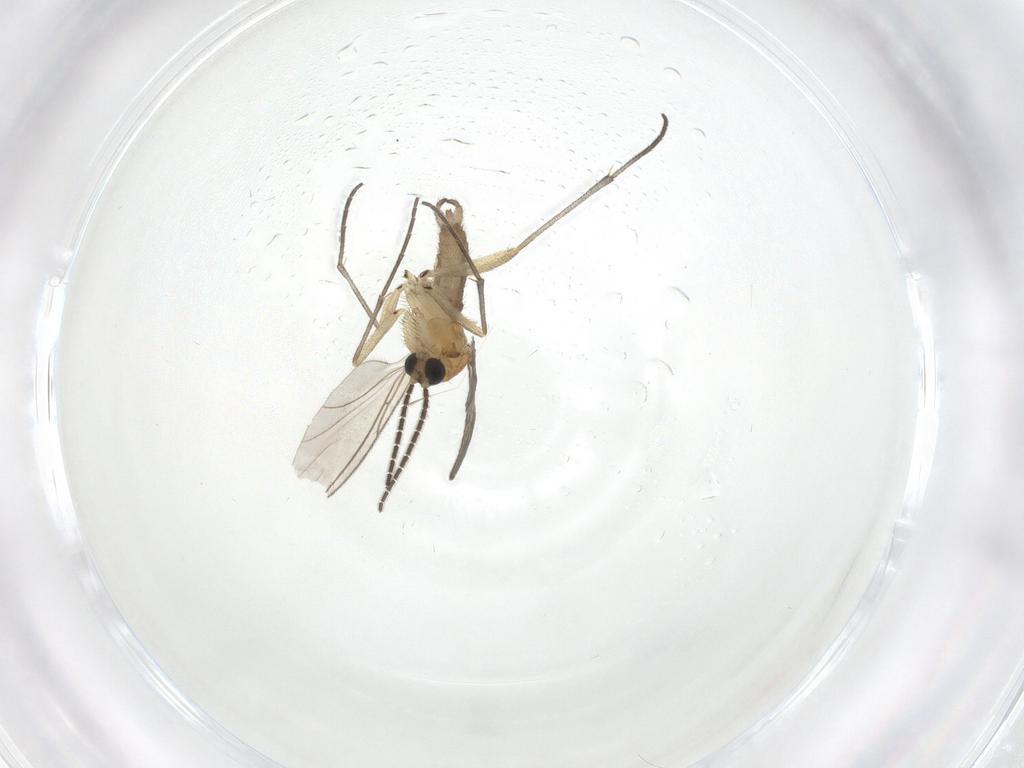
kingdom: Animalia
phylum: Arthropoda
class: Insecta
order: Diptera
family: Sciaridae
